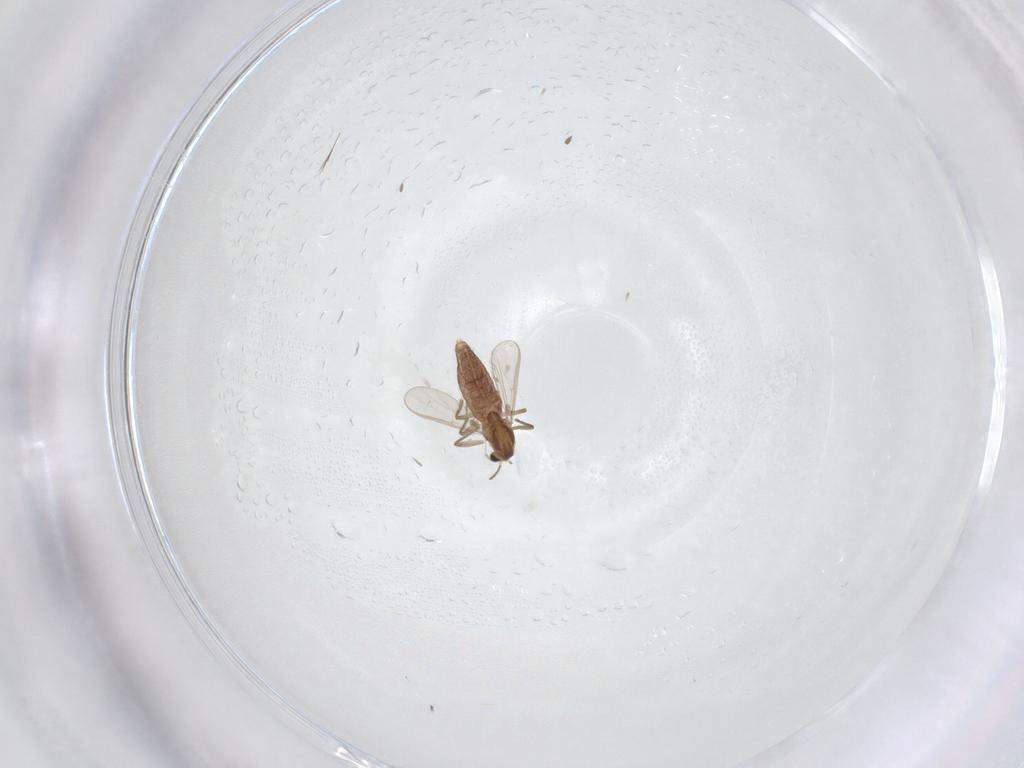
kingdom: Animalia
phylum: Arthropoda
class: Insecta
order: Diptera
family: Chironomidae
